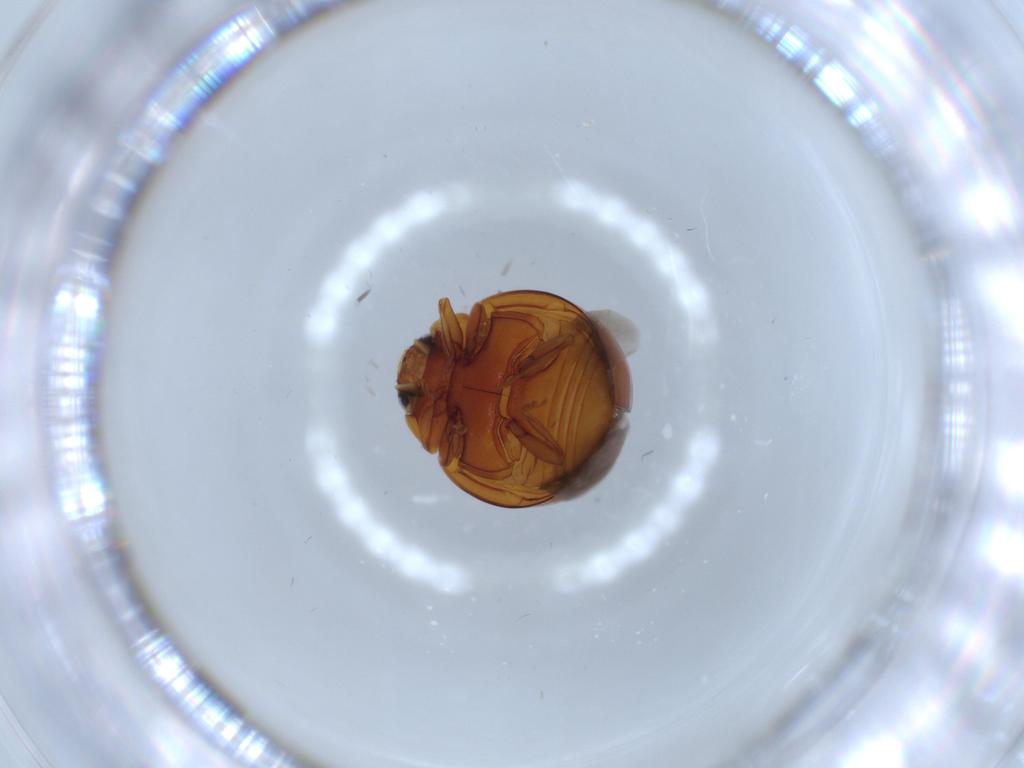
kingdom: Animalia
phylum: Arthropoda
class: Insecta
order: Coleoptera
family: Coccinellidae
